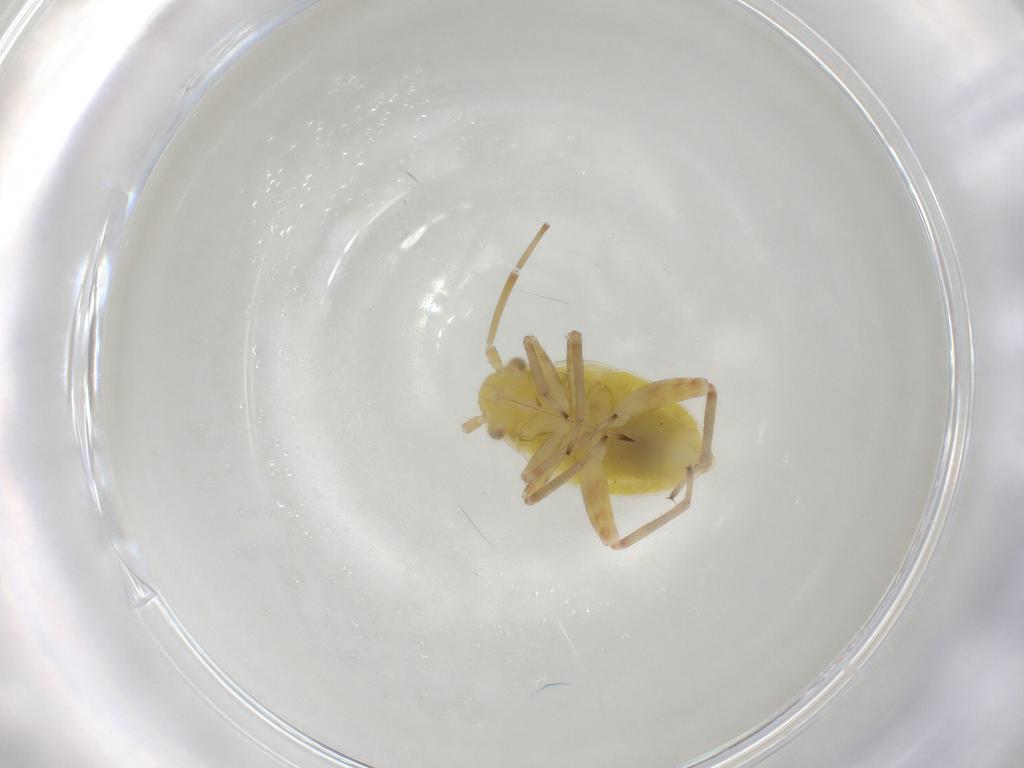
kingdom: Animalia
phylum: Arthropoda
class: Insecta
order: Hemiptera
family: Miridae
